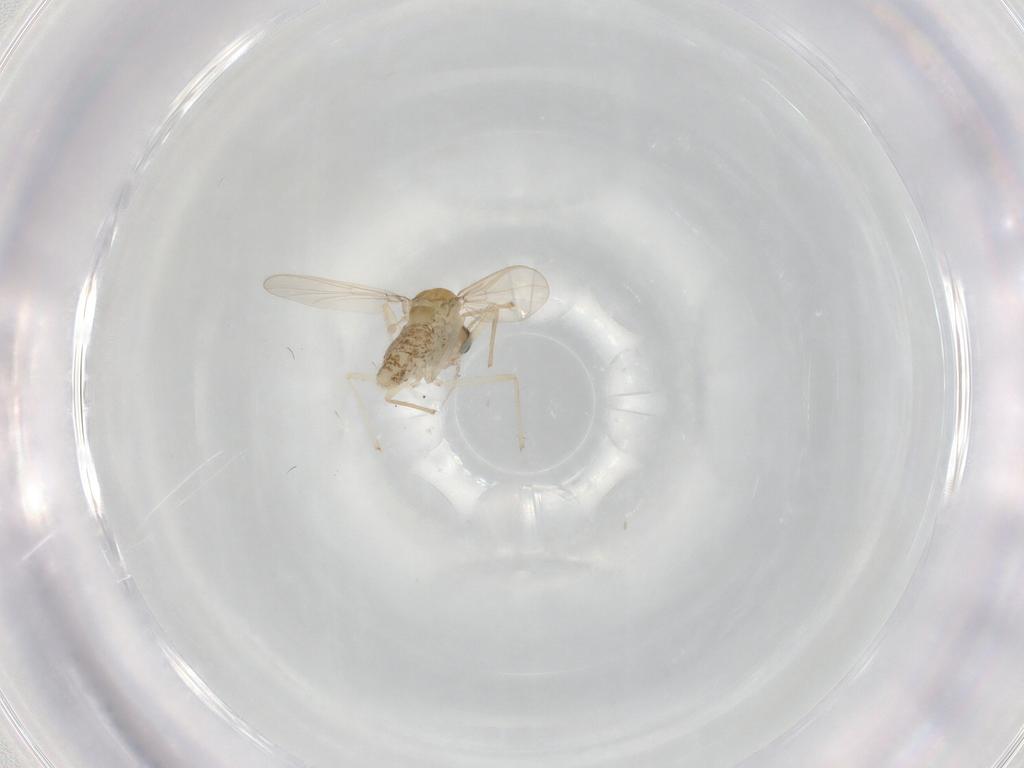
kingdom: Animalia
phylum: Arthropoda
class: Insecta
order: Diptera
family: Chironomidae
